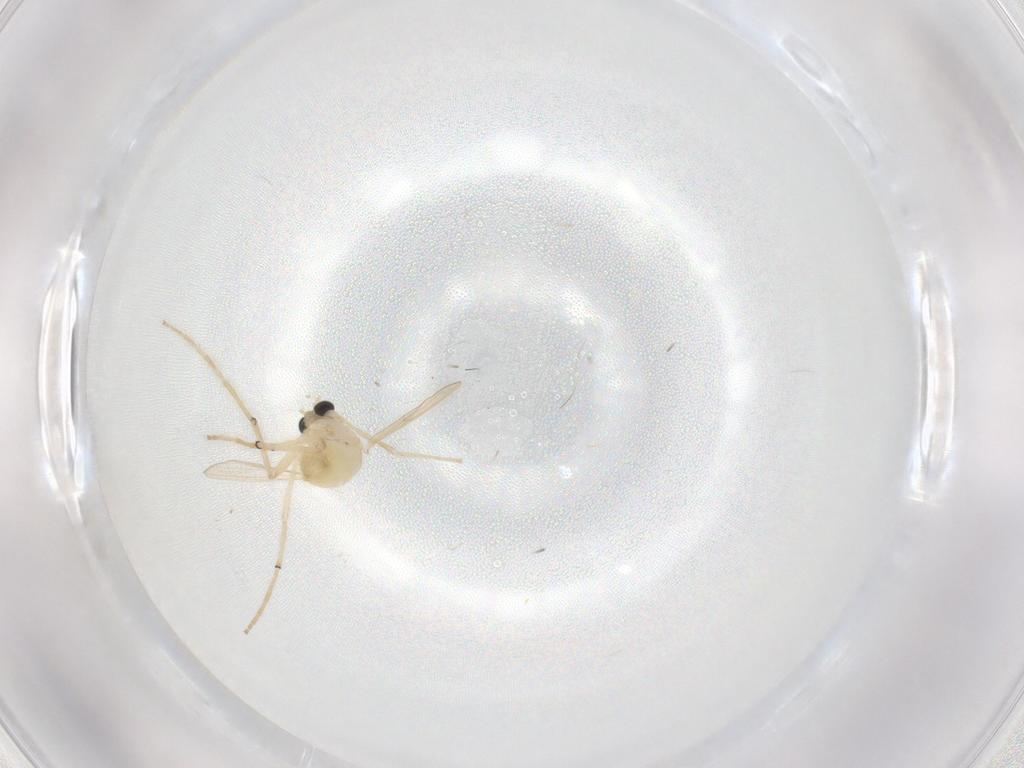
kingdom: Animalia
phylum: Arthropoda
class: Insecta
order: Diptera
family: Chironomidae
